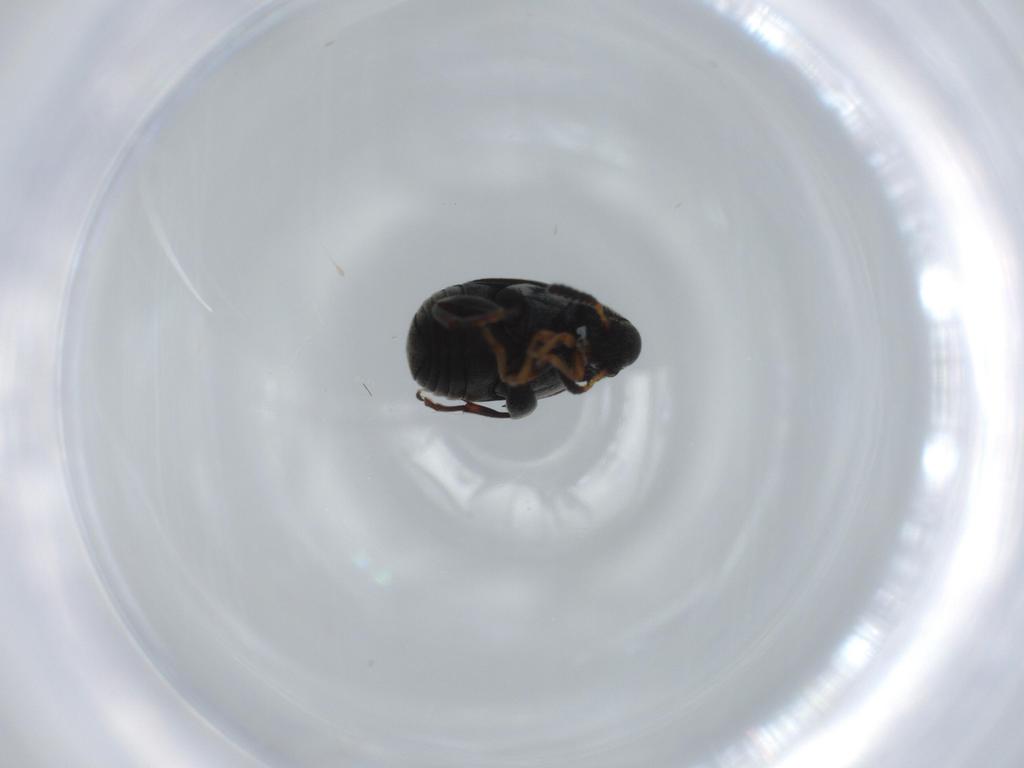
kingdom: Animalia
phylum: Arthropoda
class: Insecta
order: Coleoptera
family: Chrysomelidae
